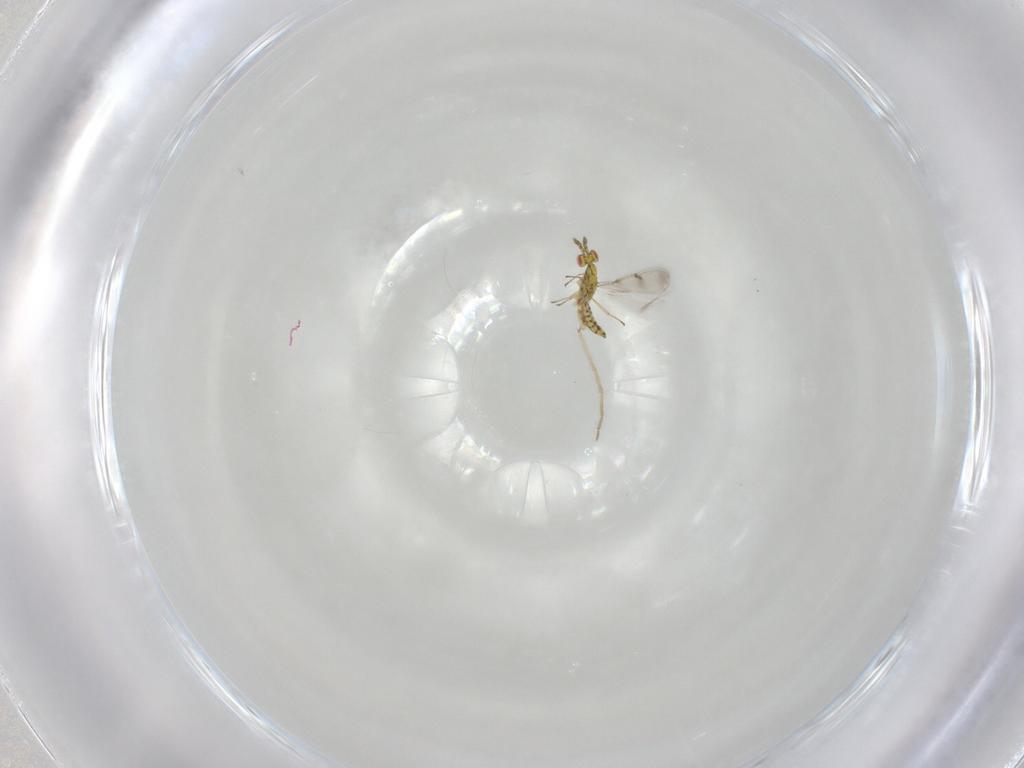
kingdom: Animalia
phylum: Arthropoda
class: Insecta
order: Hymenoptera
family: Eulophidae
